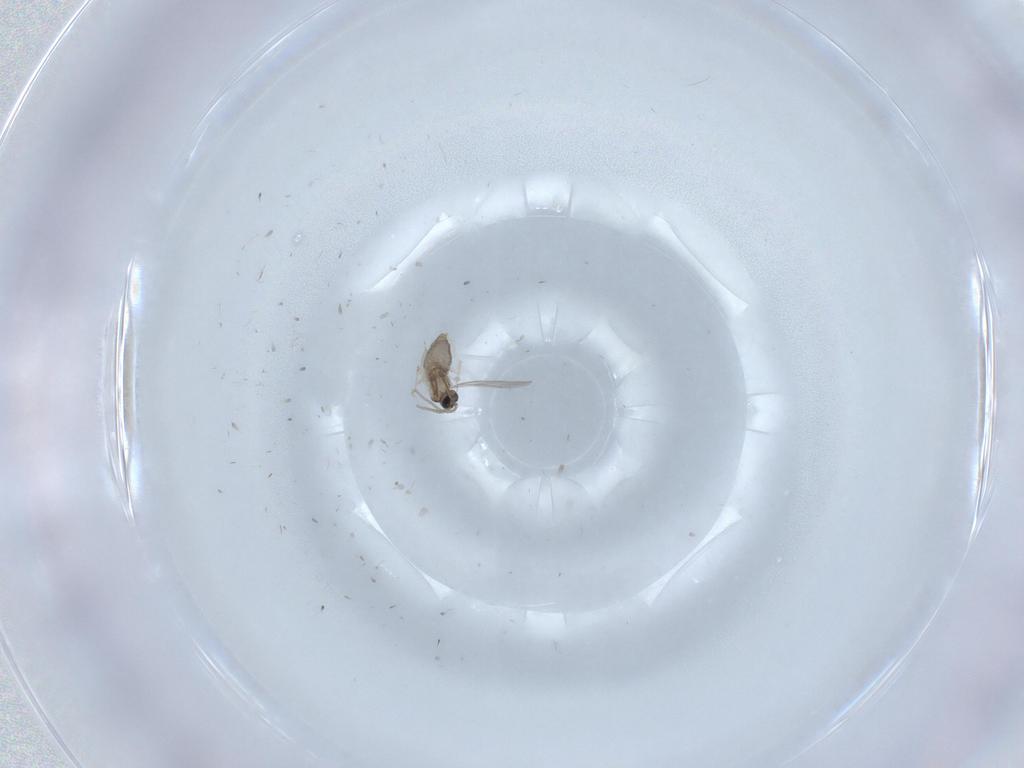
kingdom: Animalia
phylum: Arthropoda
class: Insecta
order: Diptera
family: Cecidomyiidae
